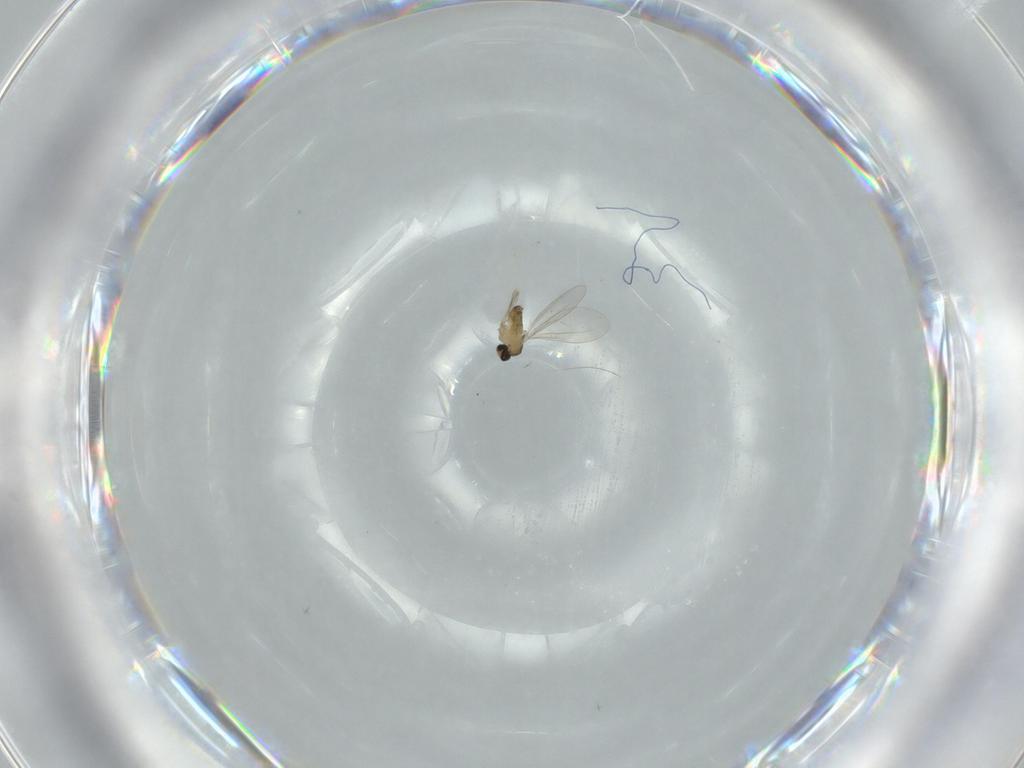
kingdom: Animalia
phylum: Arthropoda
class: Insecta
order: Diptera
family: Cecidomyiidae
